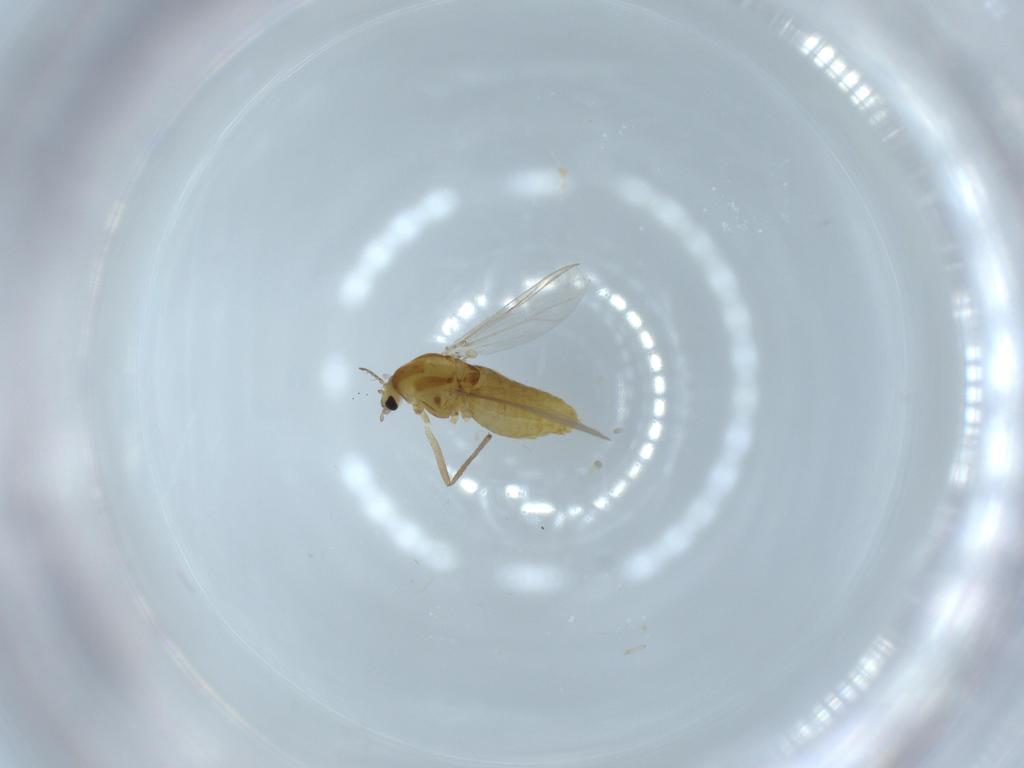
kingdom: Animalia
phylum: Arthropoda
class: Insecta
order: Diptera
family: Chironomidae
